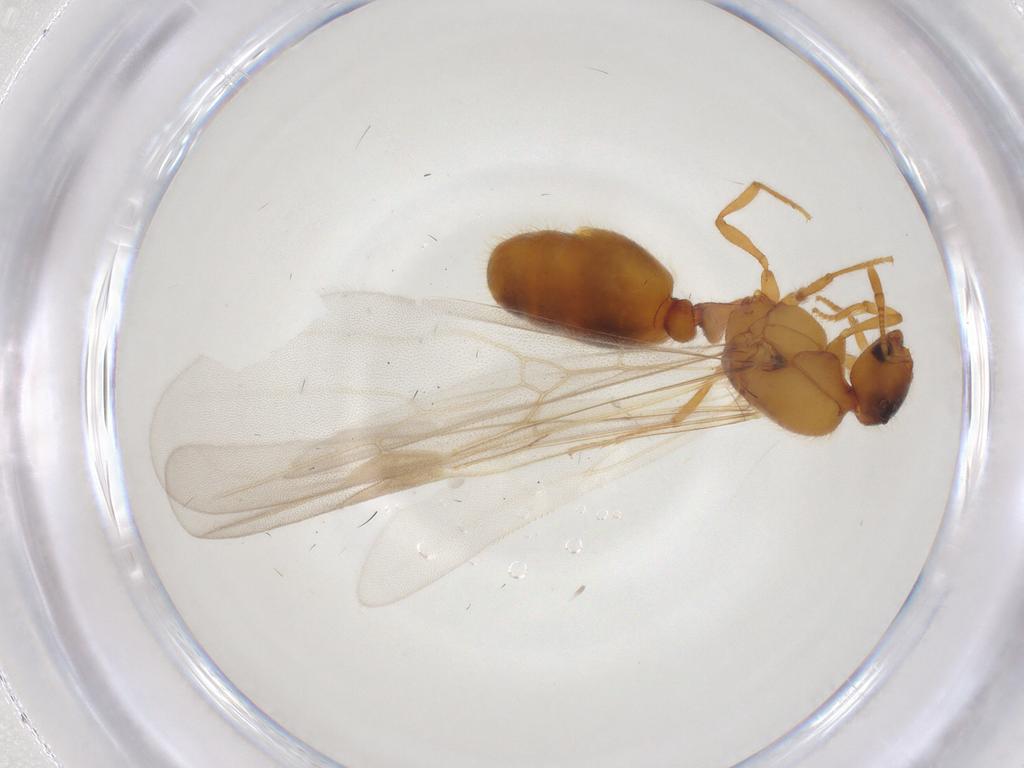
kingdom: Animalia
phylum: Arthropoda
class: Insecta
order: Hymenoptera
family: Formicidae
